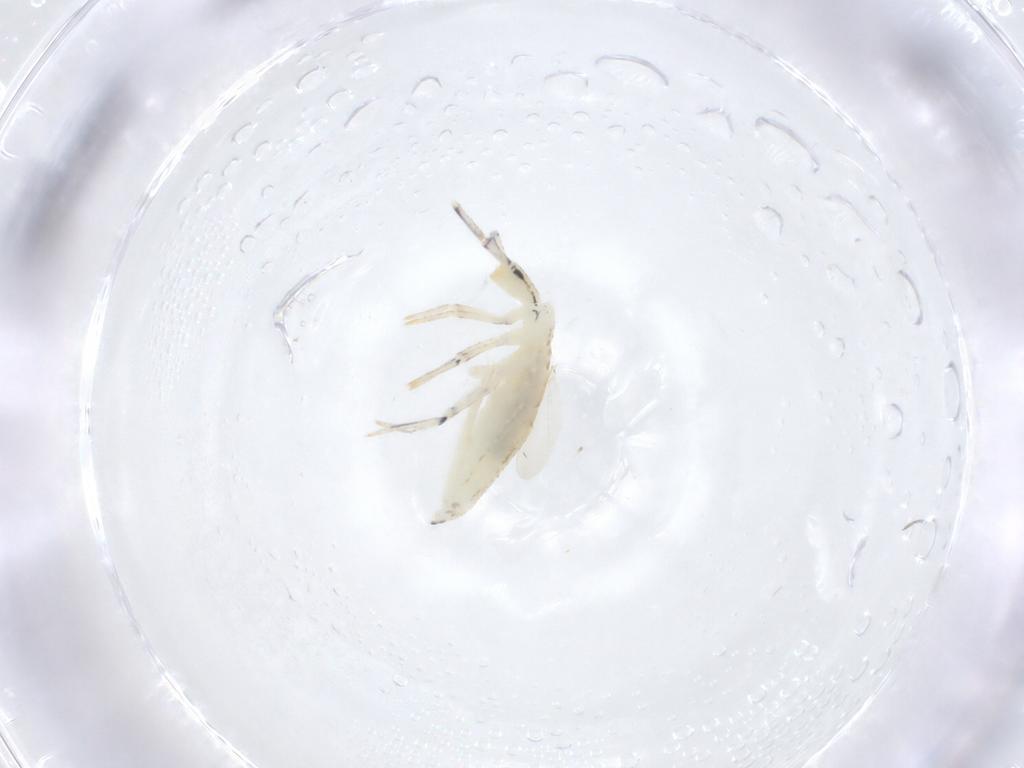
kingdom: Animalia
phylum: Arthropoda
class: Collembola
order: Entomobryomorpha
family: Entomobryidae
